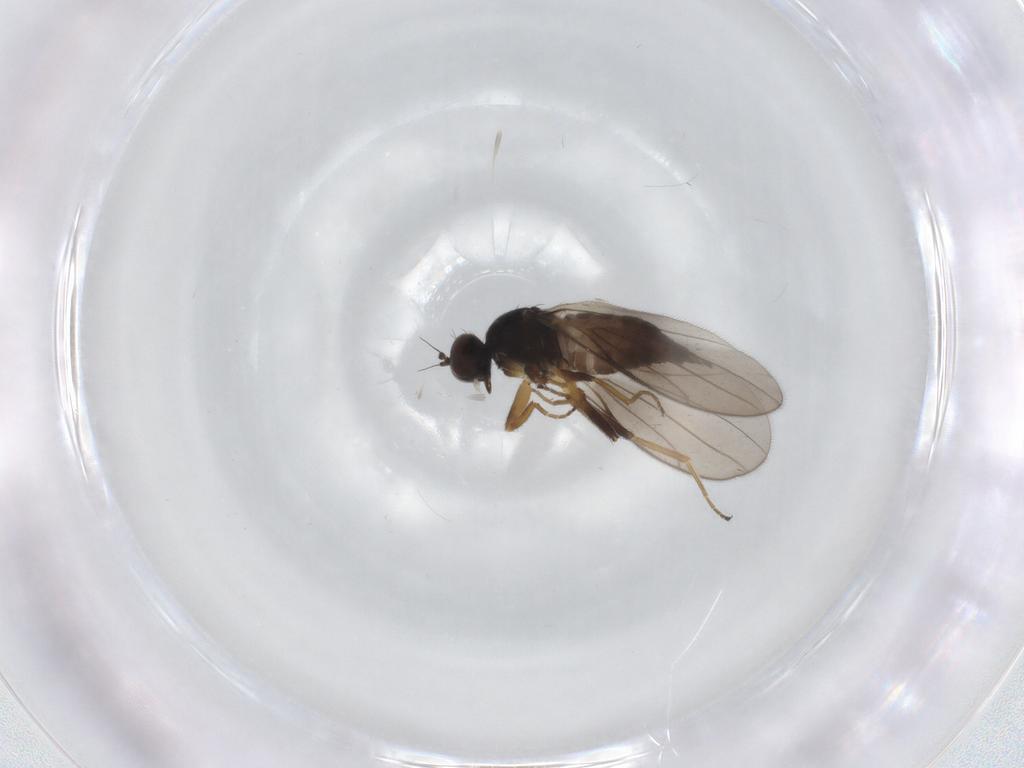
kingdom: Animalia
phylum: Arthropoda
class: Insecta
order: Diptera
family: Hybotidae
